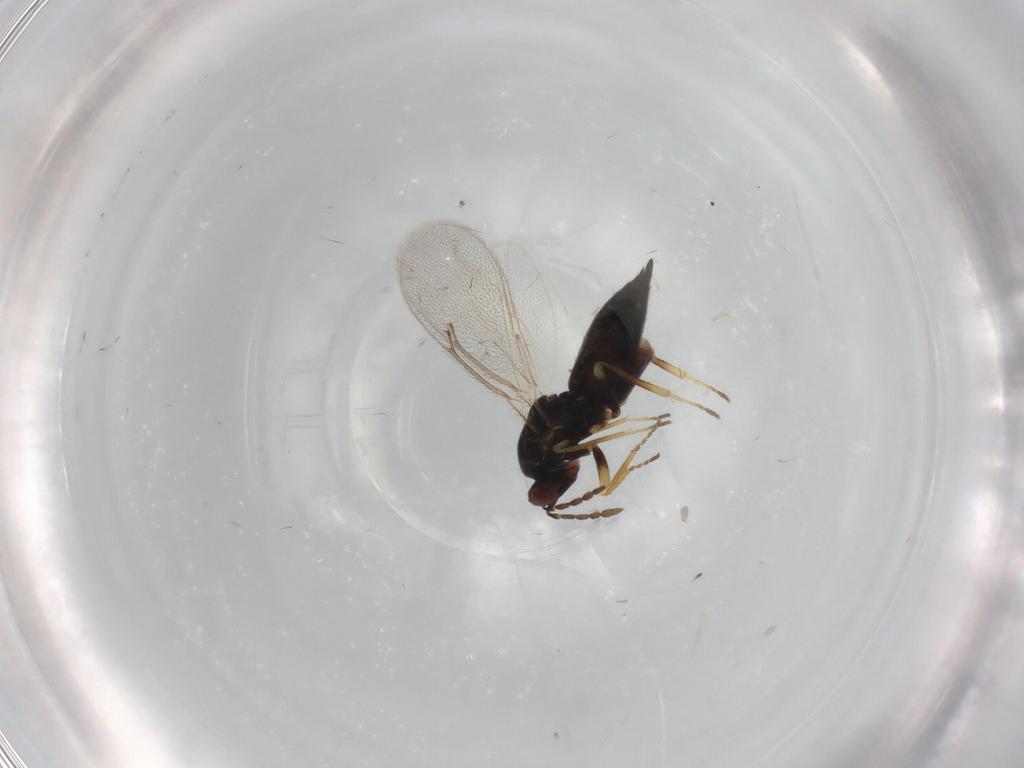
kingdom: Animalia
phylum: Arthropoda
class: Insecta
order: Hymenoptera
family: Eulophidae
